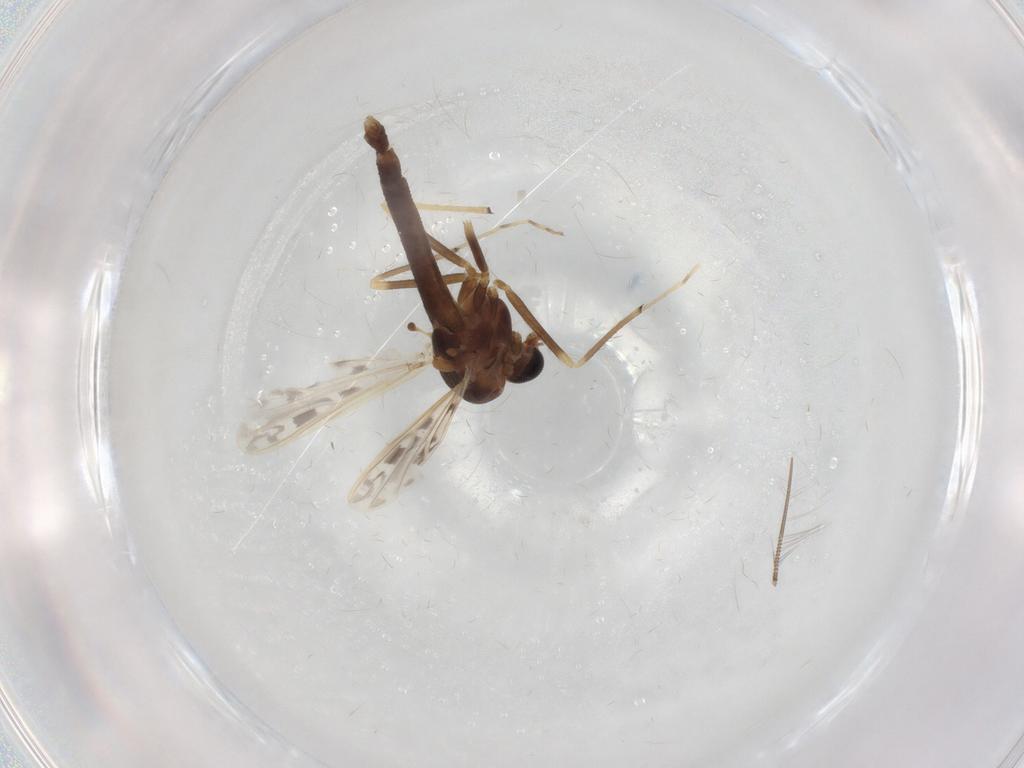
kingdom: Animalia
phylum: Arthropoda
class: Insecta
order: Diptera
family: Chironomidae
